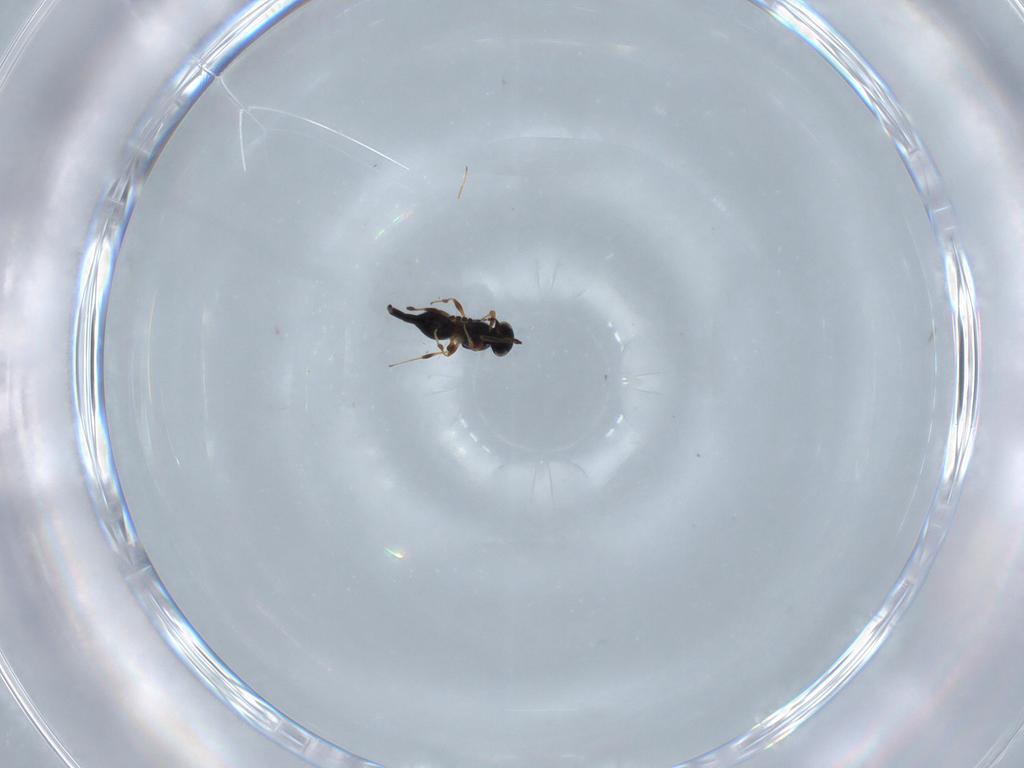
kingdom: Animalia
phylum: Arthropoda
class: Insecta
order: Hymenoptera
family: Platygastridae
